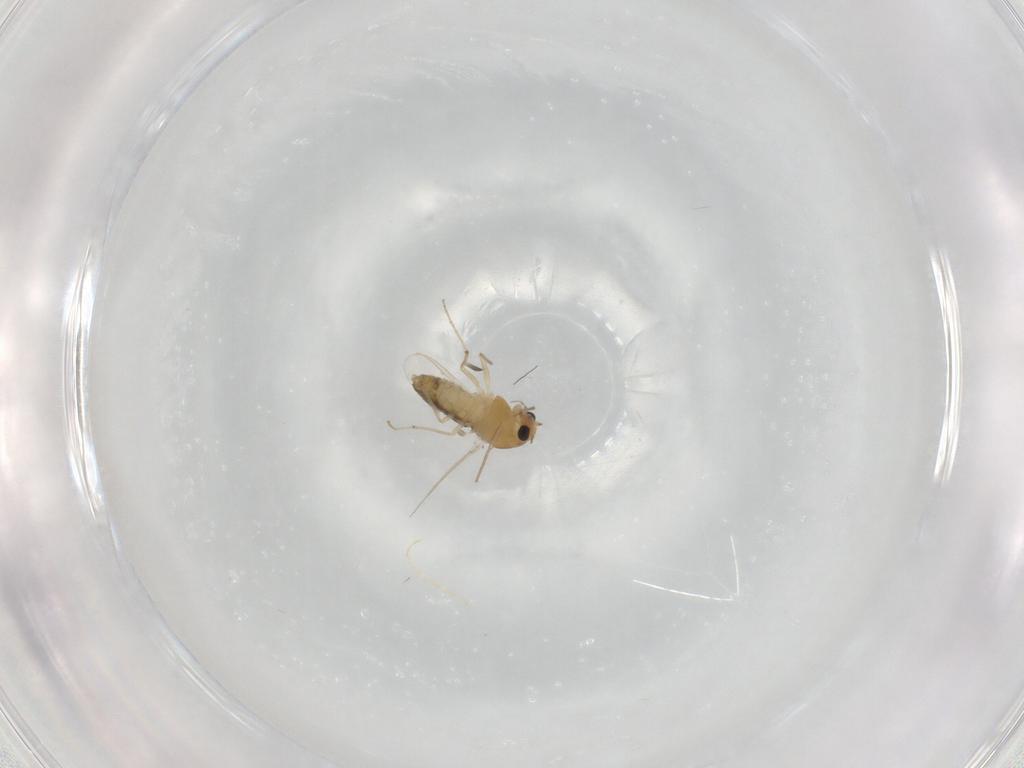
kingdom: Animalia
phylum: Arthropoda
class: Insecta
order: Diptera
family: Chironomidae
